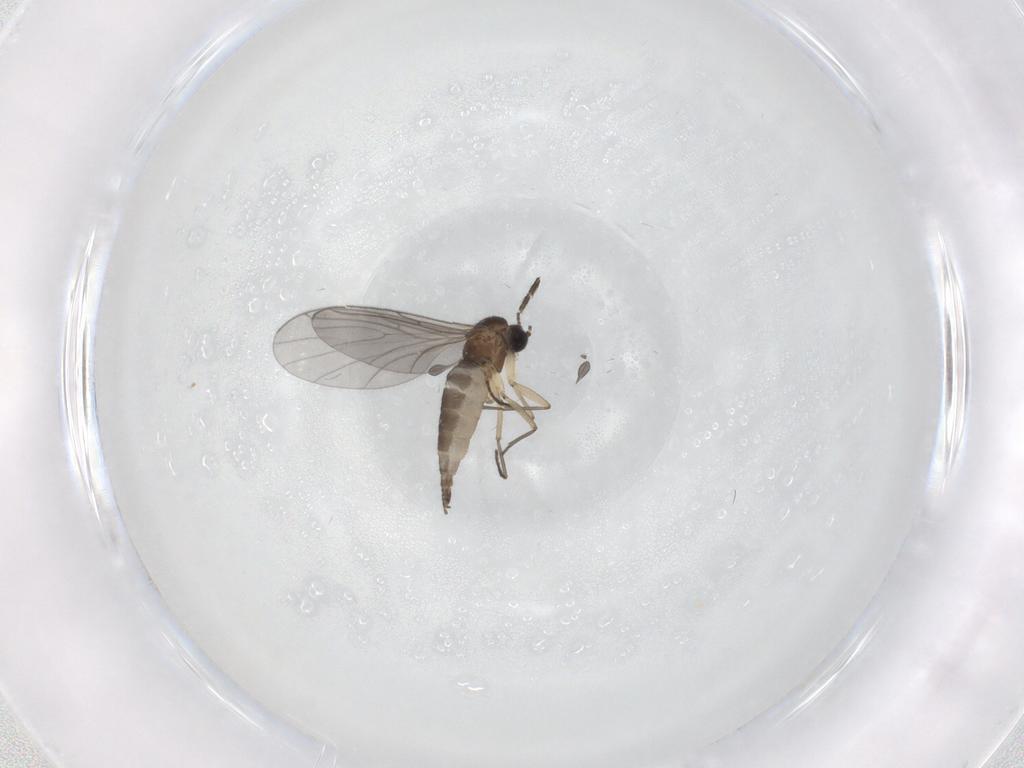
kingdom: Animalia
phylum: Arthropoda
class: Insecta
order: Diptera
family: Sciaridae
